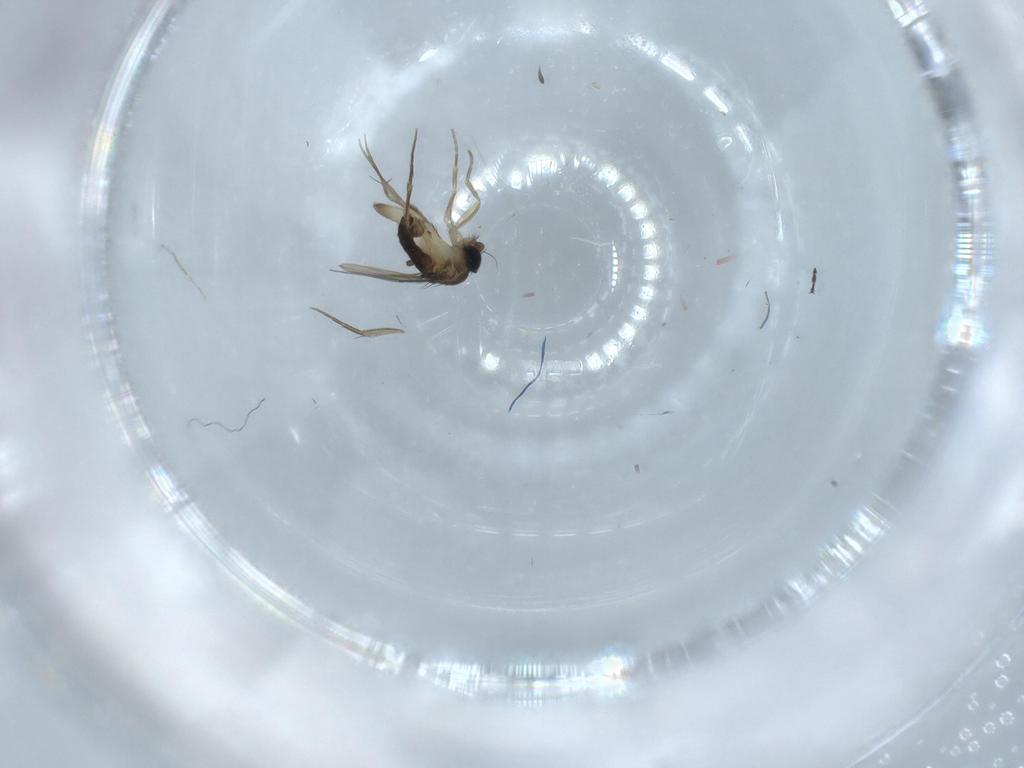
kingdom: Animalia
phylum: Arthropoda
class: Insecta
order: Diptera
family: Phoridae
